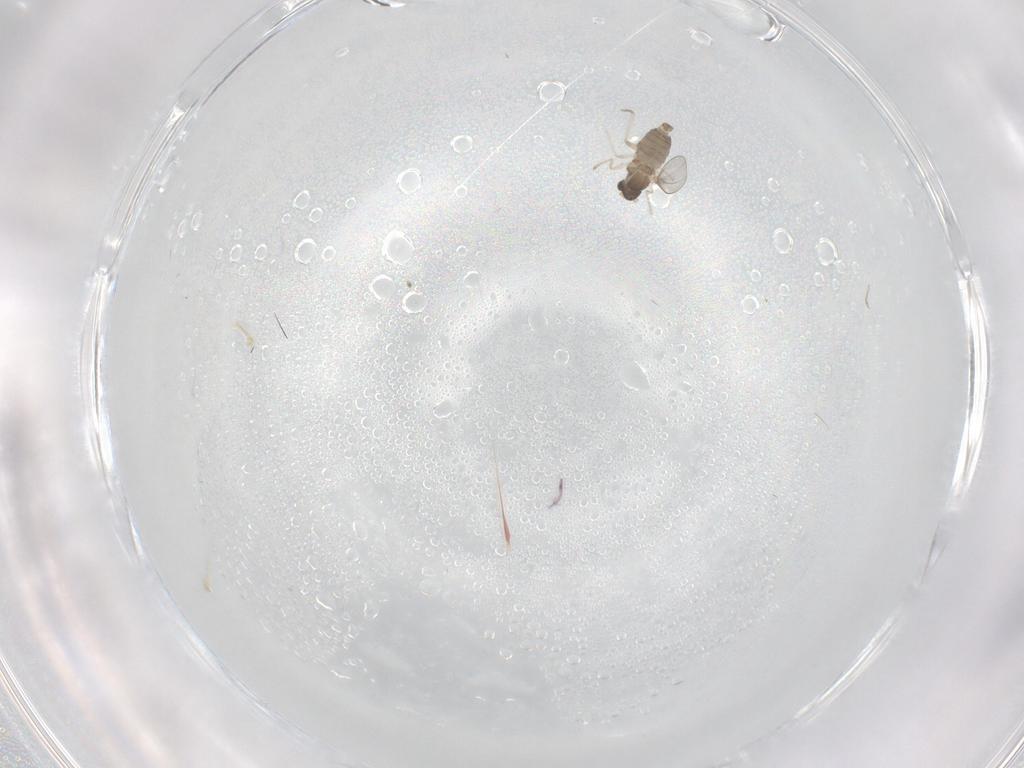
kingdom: Animalia
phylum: Arthropoda
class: Insecta
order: Diptera
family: Cecidomyiidae
